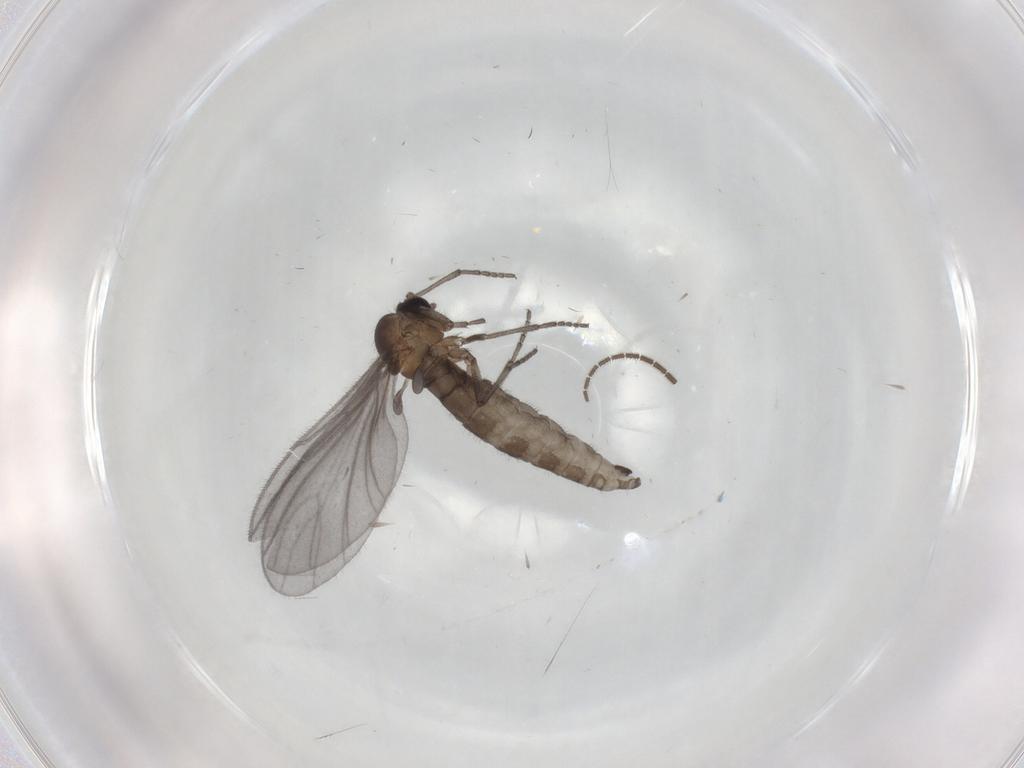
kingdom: Animalia
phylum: Arthropoda
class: Insecta
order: Diptera
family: Sciaridae
